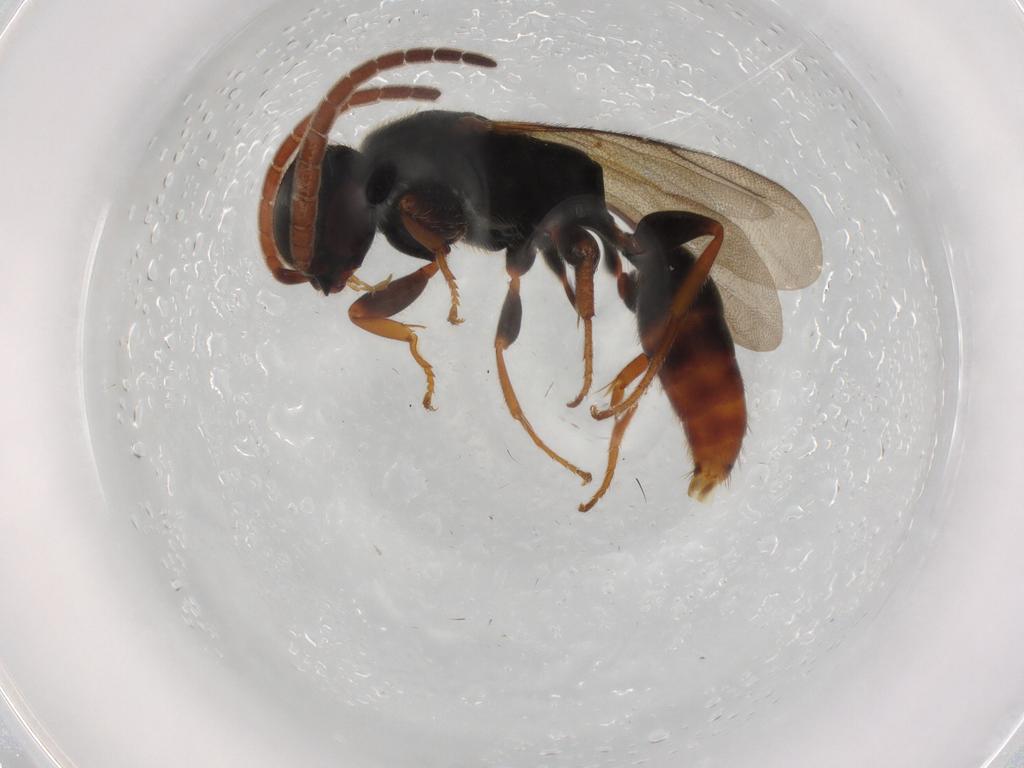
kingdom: Animalia
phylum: Arthropoda
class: Insecta
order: Hymenoptera
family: Bethylidae
